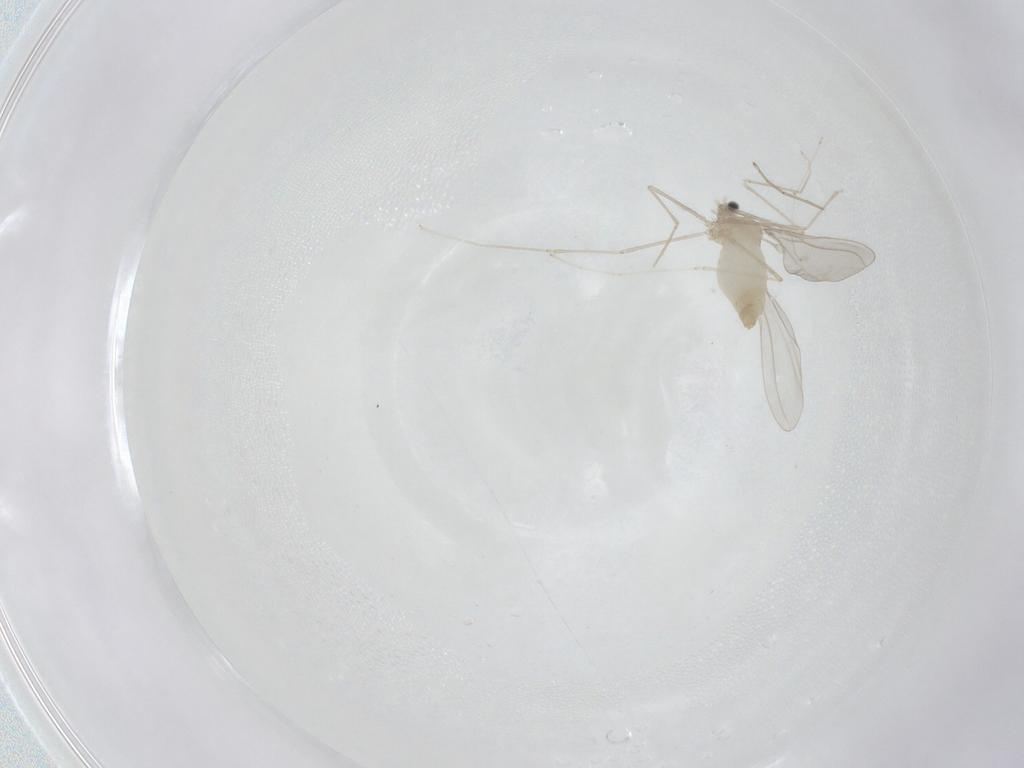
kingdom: Animalia
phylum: Arthropoda
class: Insecta
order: Diptera
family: Cecidomyiidae
